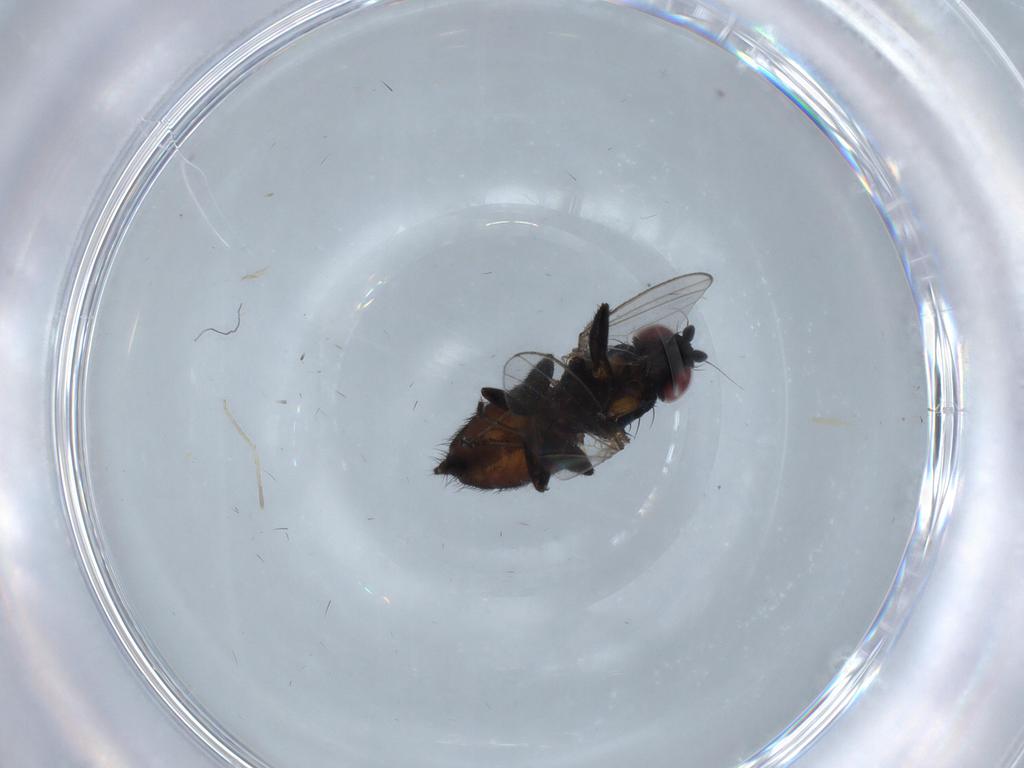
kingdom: Animalia
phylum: Arthropoda
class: Insecta
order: Diptera
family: Milichiidae
